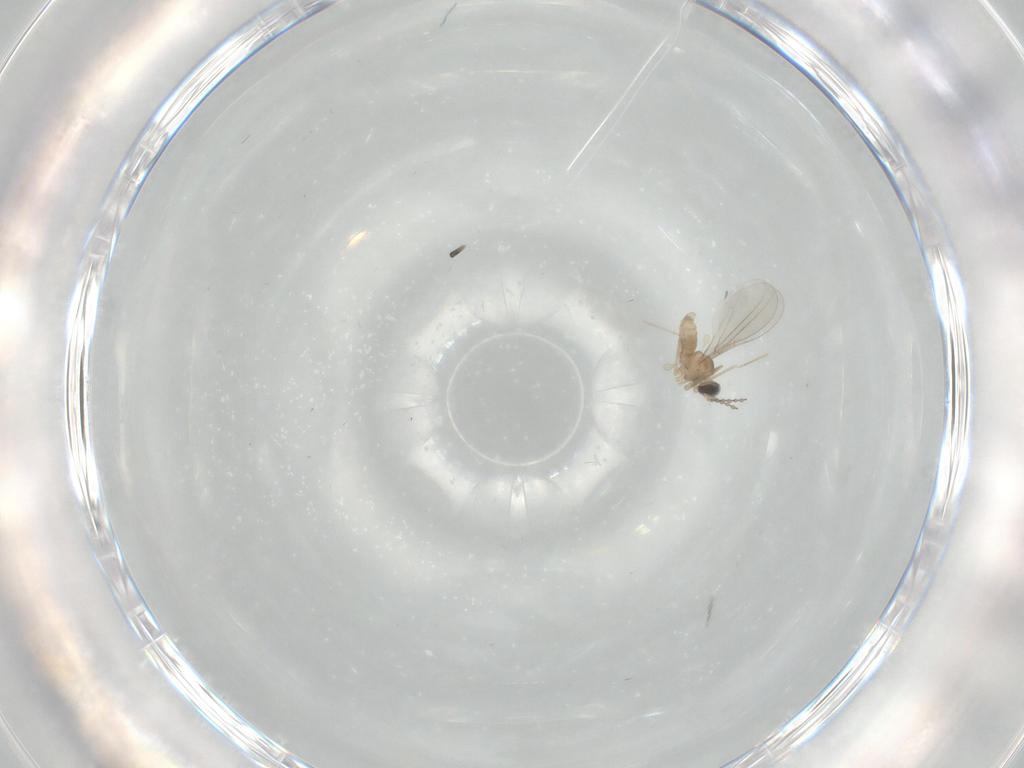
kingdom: Animalia
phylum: Arthropoda
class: Insecta
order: Diptera
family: Cecidomyiidae
